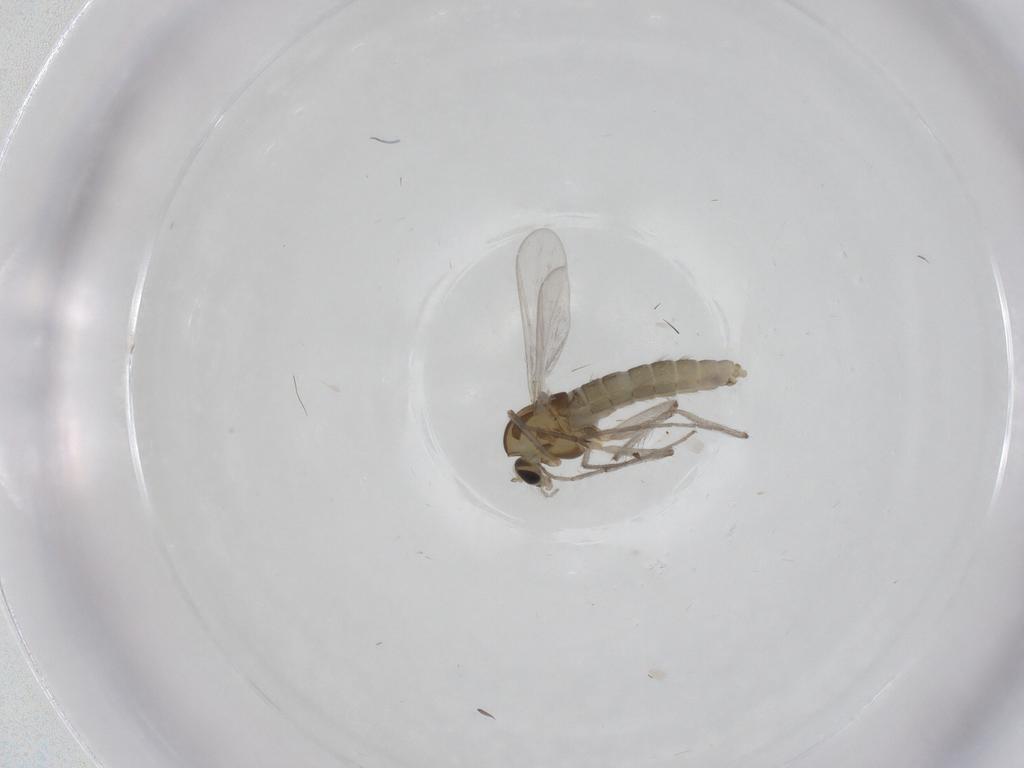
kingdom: Animalia
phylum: Arthropoda
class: Insecta
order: Diptera
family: Chironomidae
